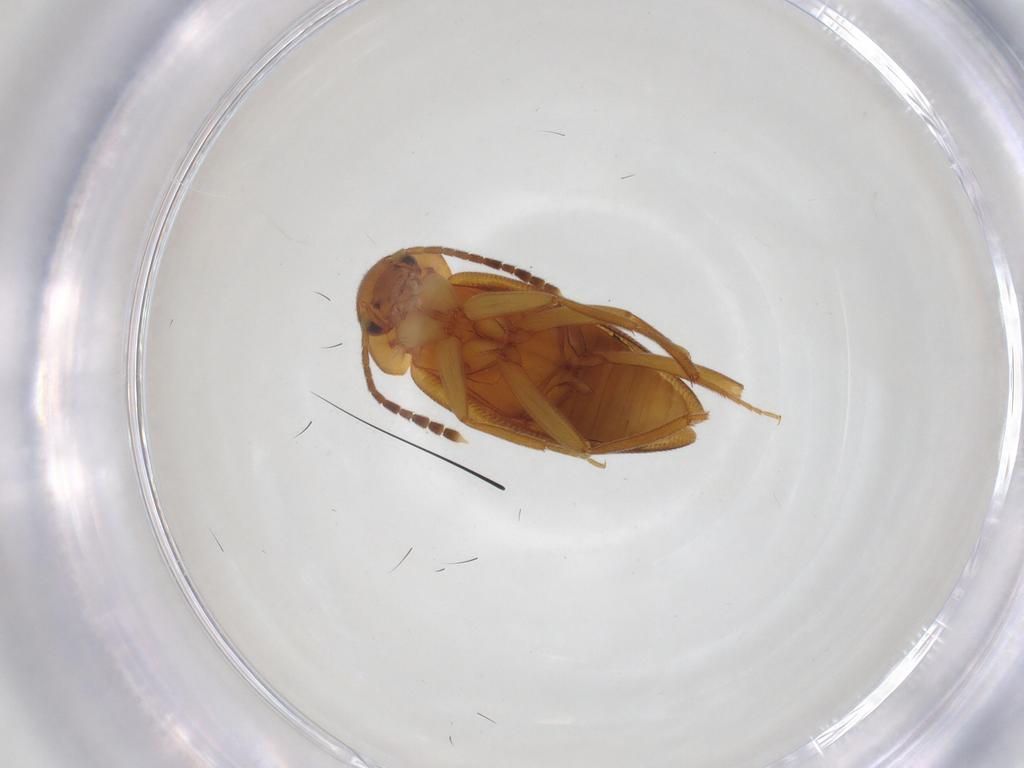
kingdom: Animalia
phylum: Arthropoda
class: Insecta
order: Coleoptera
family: Leiodidae
